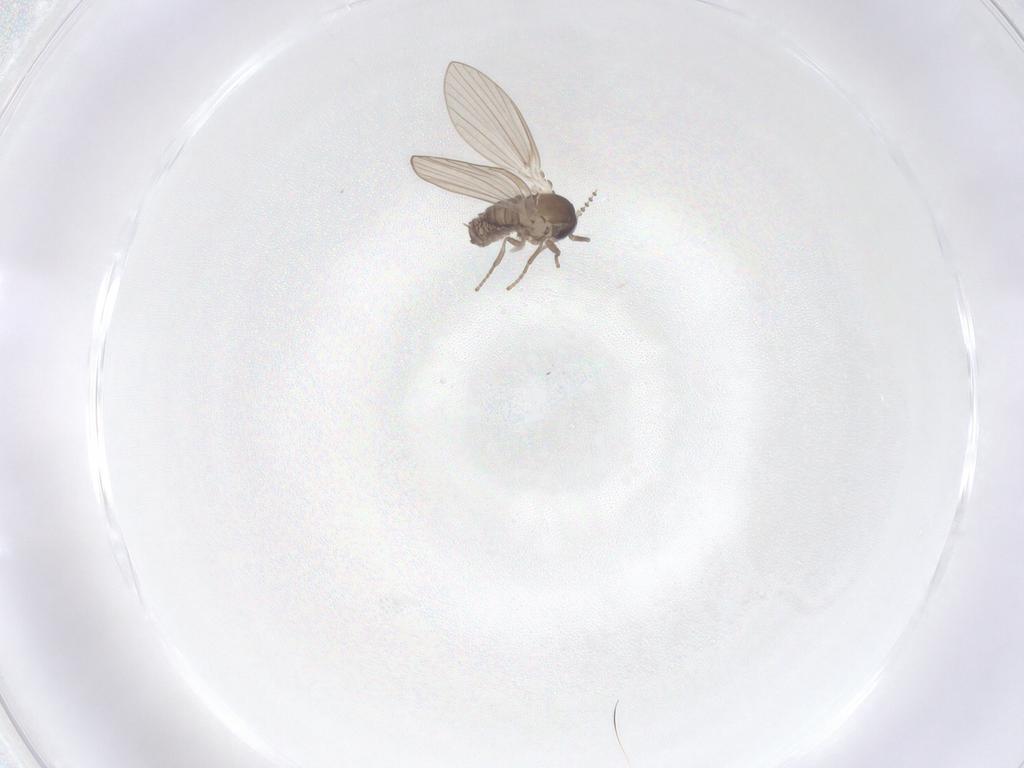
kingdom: Animalia
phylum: Arthropoda
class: Insecta
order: Diptera
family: Psychodidae
